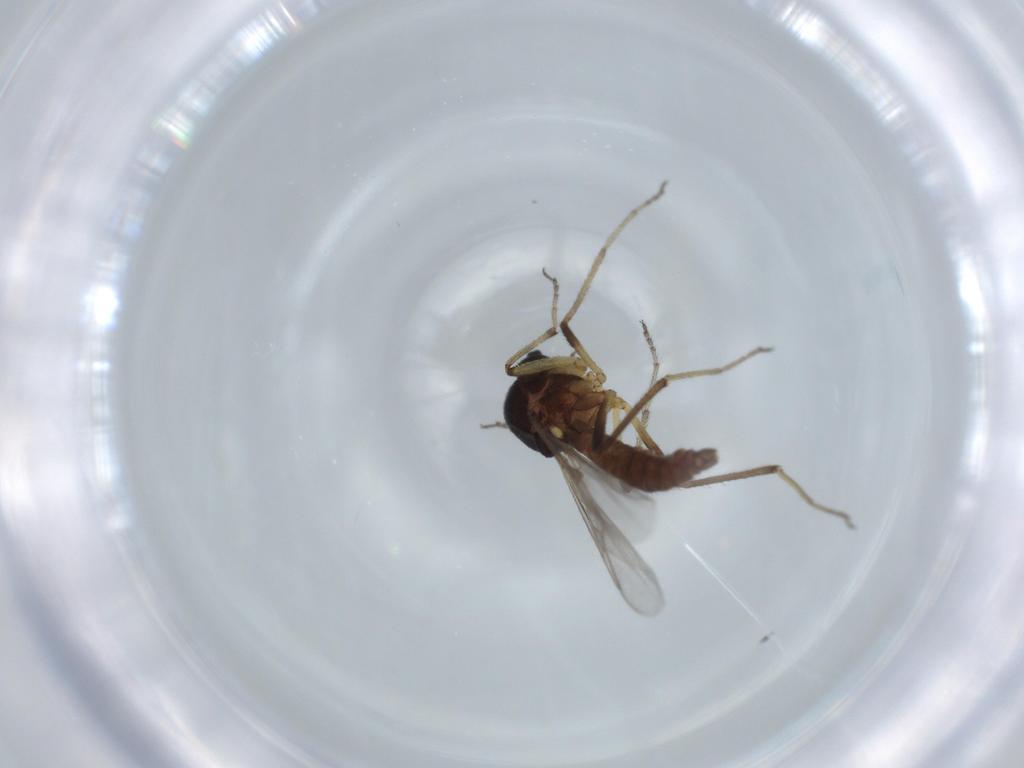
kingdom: Animalia
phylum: Arthropoda
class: Insecta
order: Diptera
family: Ceratopogonidae
